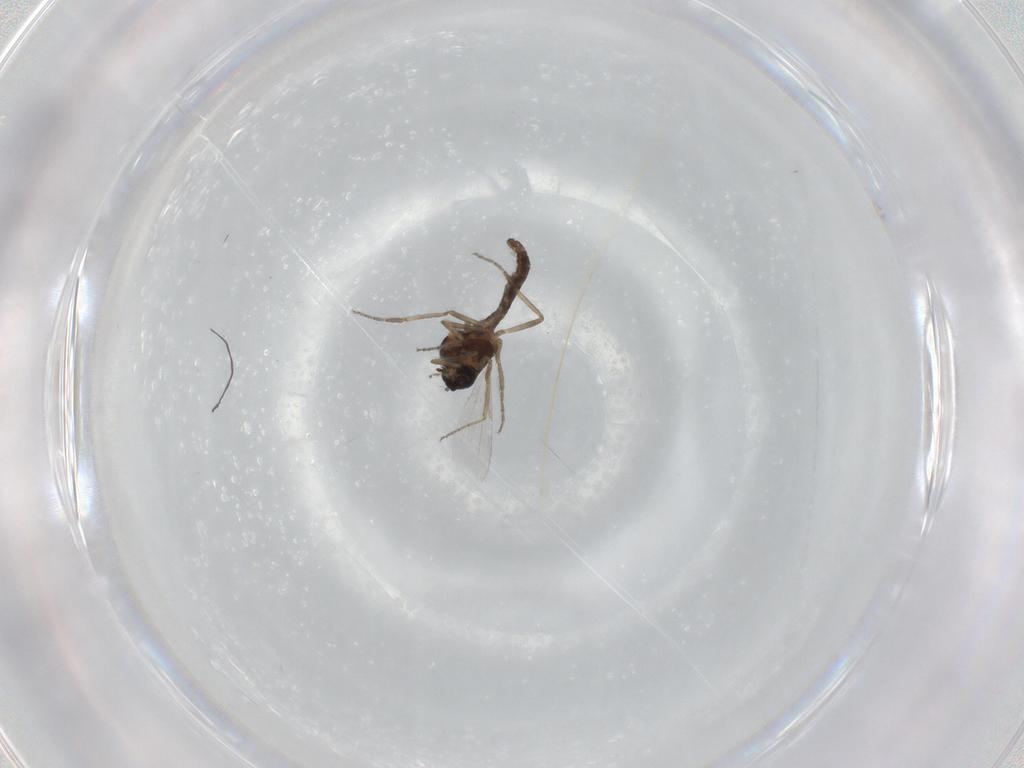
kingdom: Animalia
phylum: Arthropoda
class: Insecta
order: Diptera
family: Ceratopogonidae
